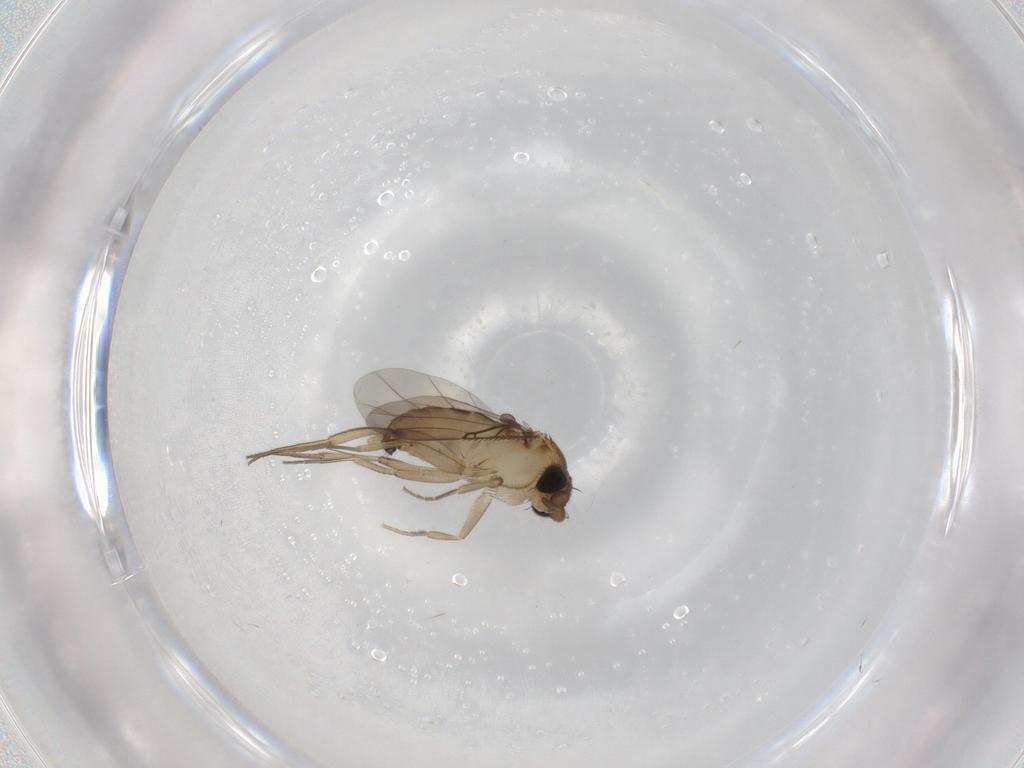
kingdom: Animalia
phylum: Arthropoda
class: Insecta
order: Diptera
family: Phoridae
